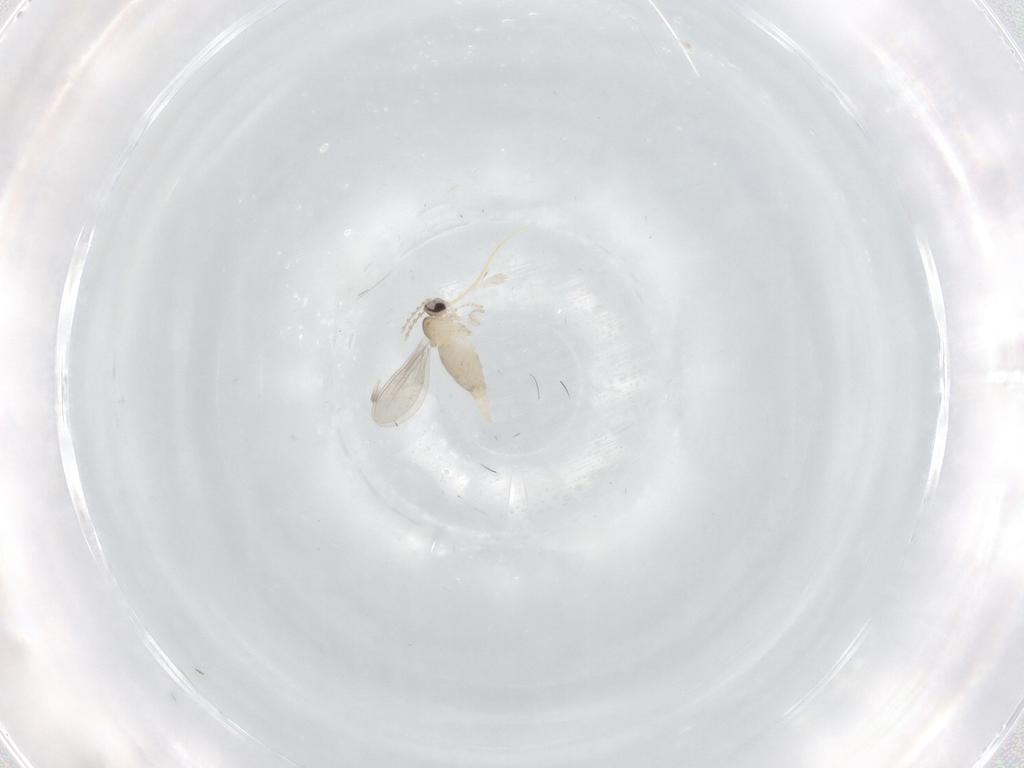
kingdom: Animalia
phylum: Arthropoda
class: Insecta
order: Diptera
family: Cecidomyiidae
